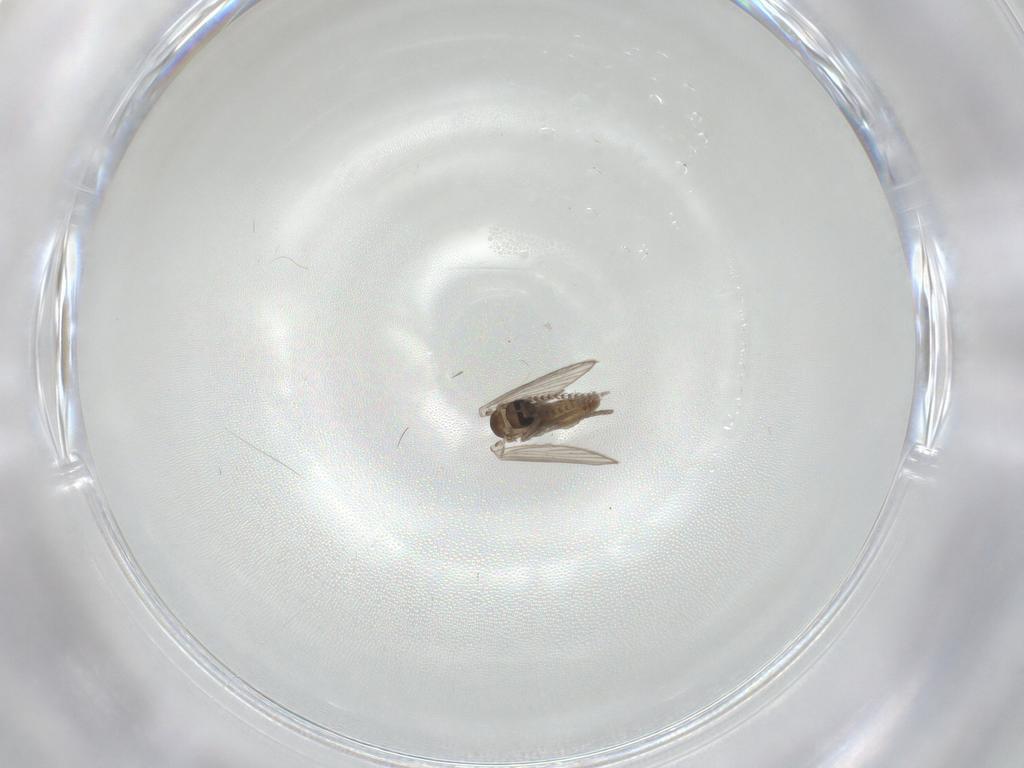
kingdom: Animalia
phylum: Arthropoda
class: Insecta
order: Diptera
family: Psychodidae
